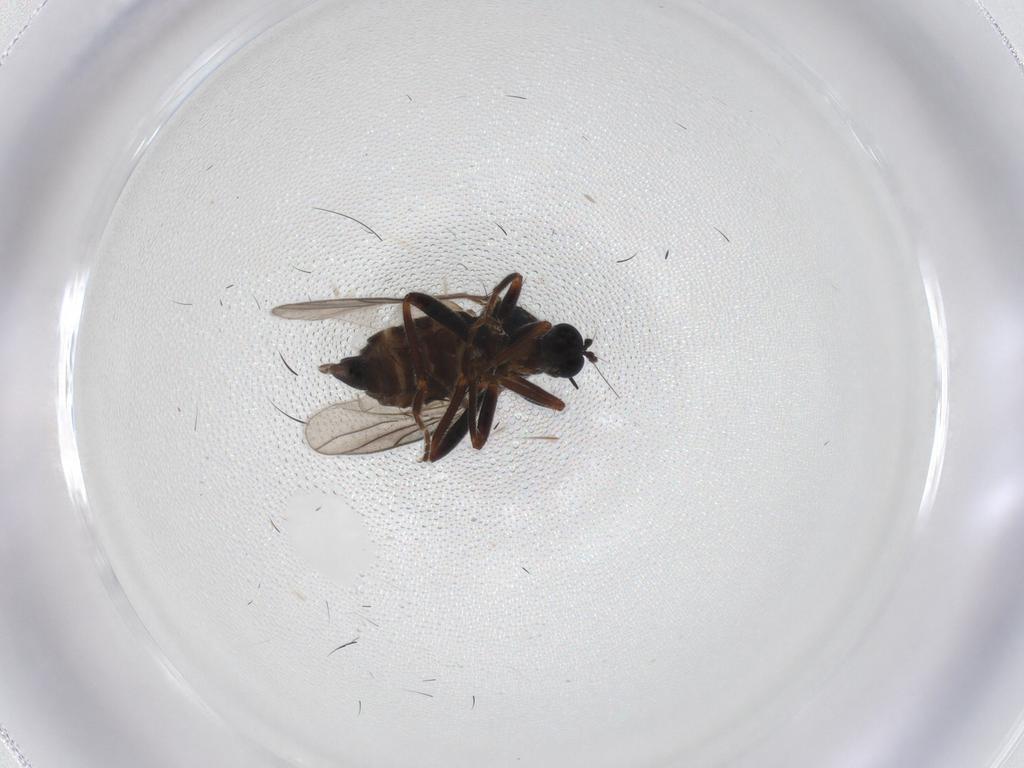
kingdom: Animalia
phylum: Arthropoda
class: Insecta
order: Diptera
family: Sciaridae
